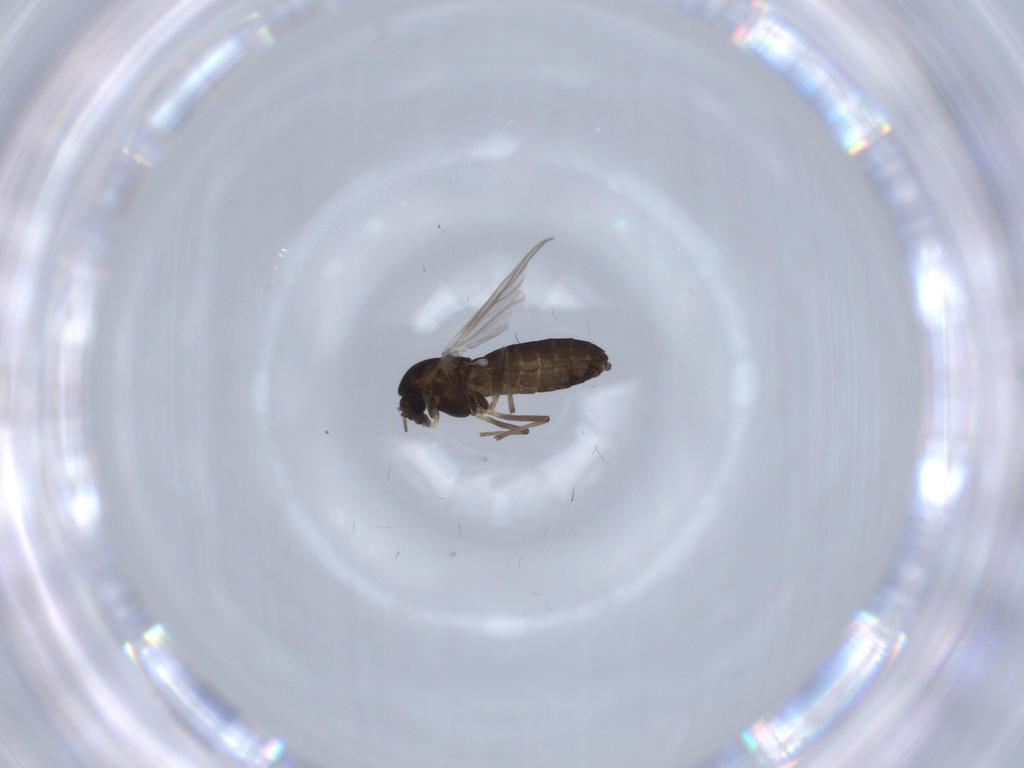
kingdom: Animalia
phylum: Arthropoda
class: Insecta
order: Diptera
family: Chironomidae
